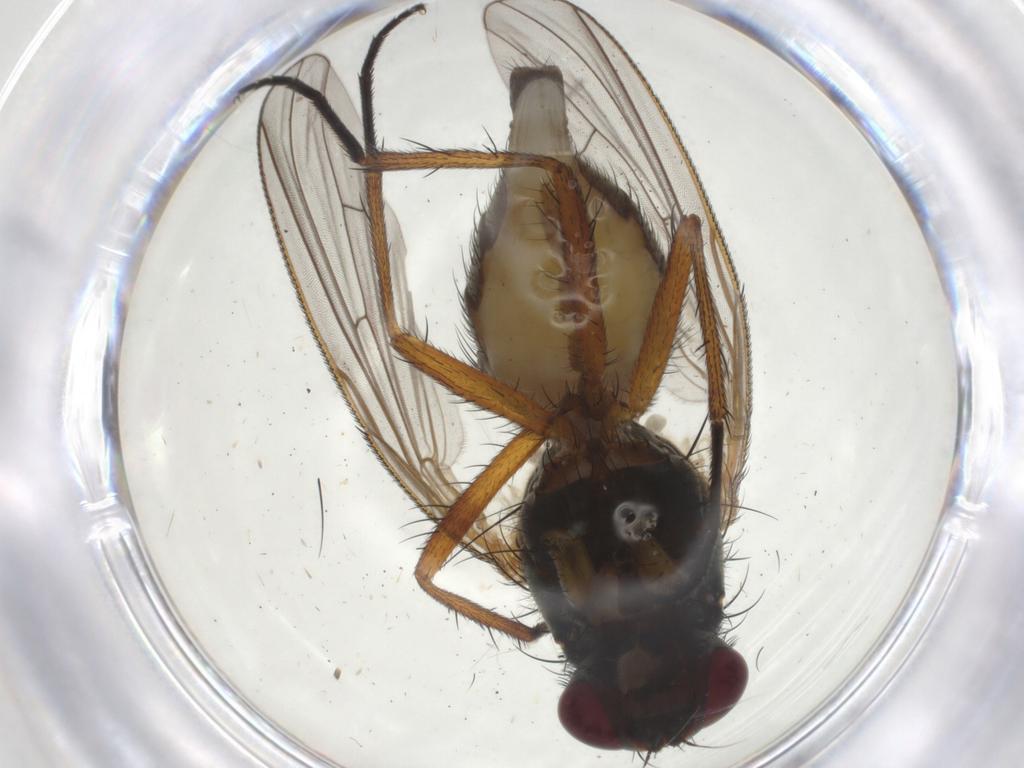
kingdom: Animalia
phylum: Arthropoda
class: Insecta
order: Diptera
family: Anthomyiidae
